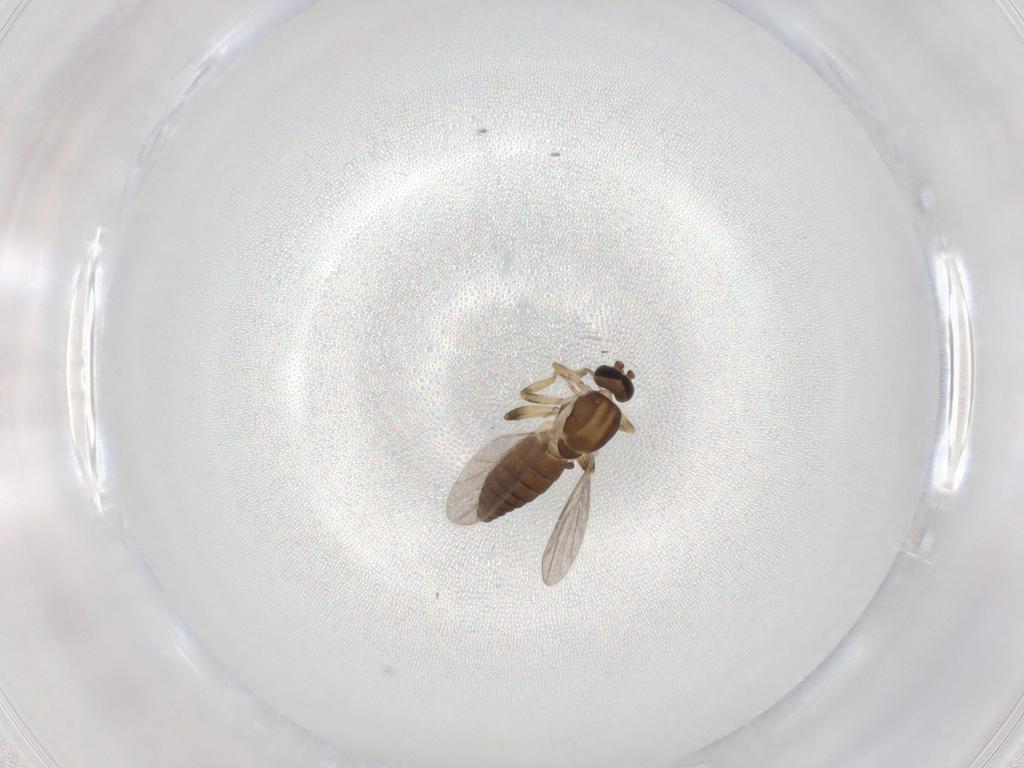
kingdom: Animalia
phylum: Arthropoda
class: Insecta
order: Diptera
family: Ceratopogonidae
